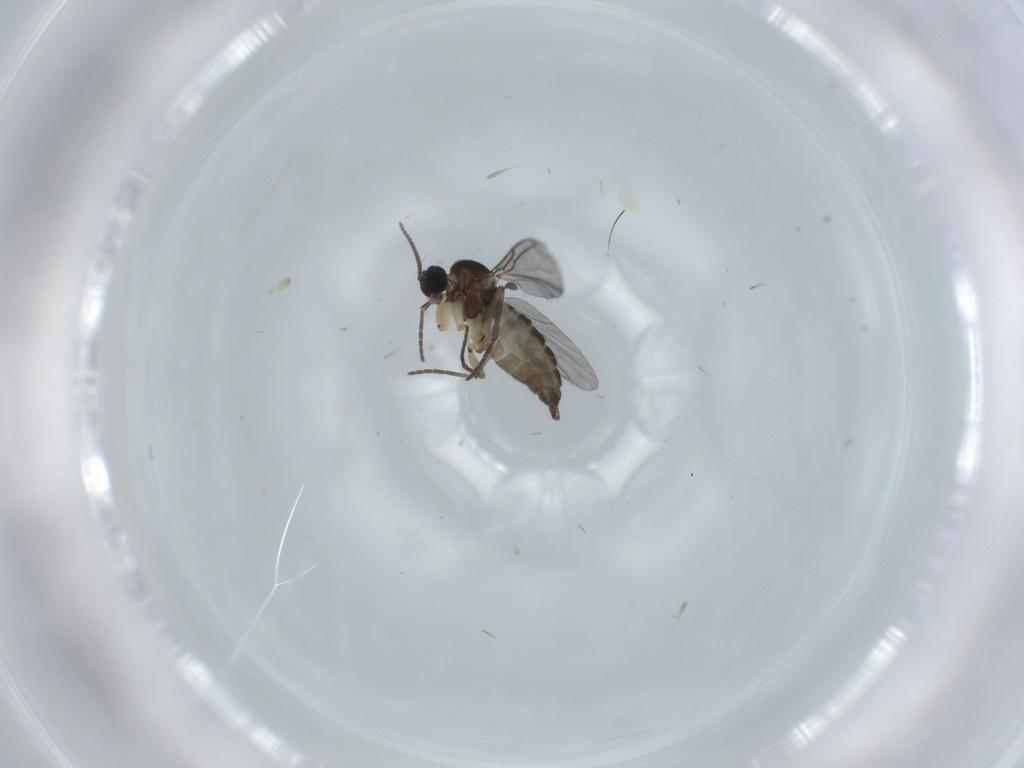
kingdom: Animalia
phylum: Arthropoda
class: Insecta
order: Diptera
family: Sciaridae
